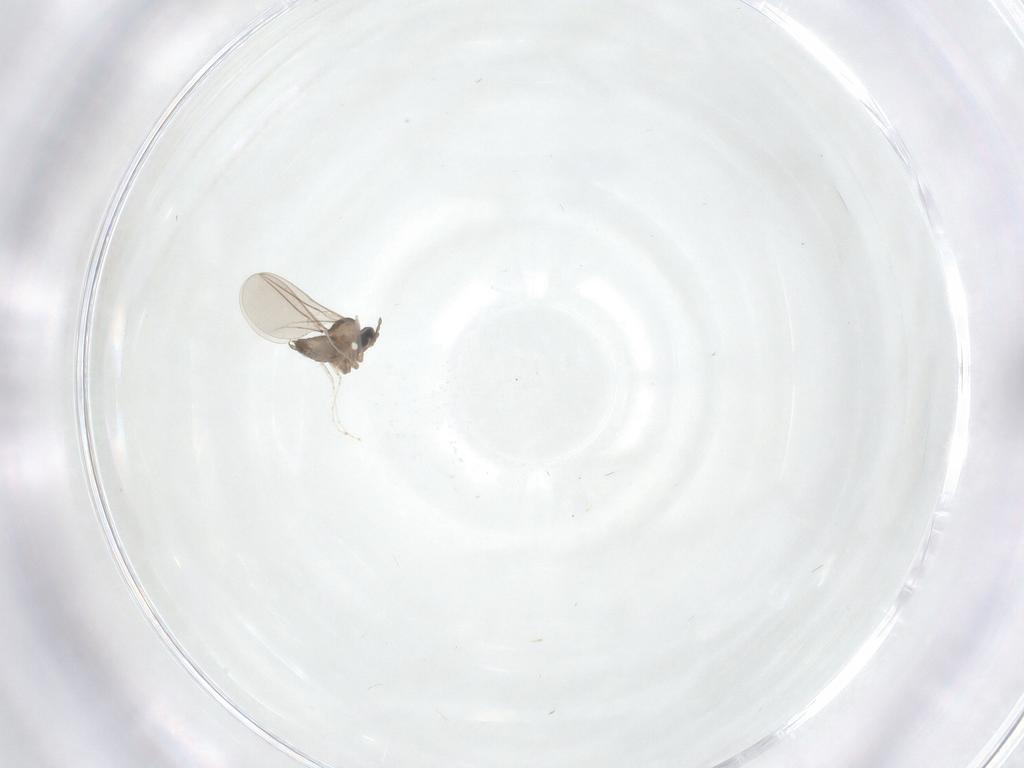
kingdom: Animalia
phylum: Arthropoda
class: Insecta
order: Diptera
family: Cecidomyiidae
